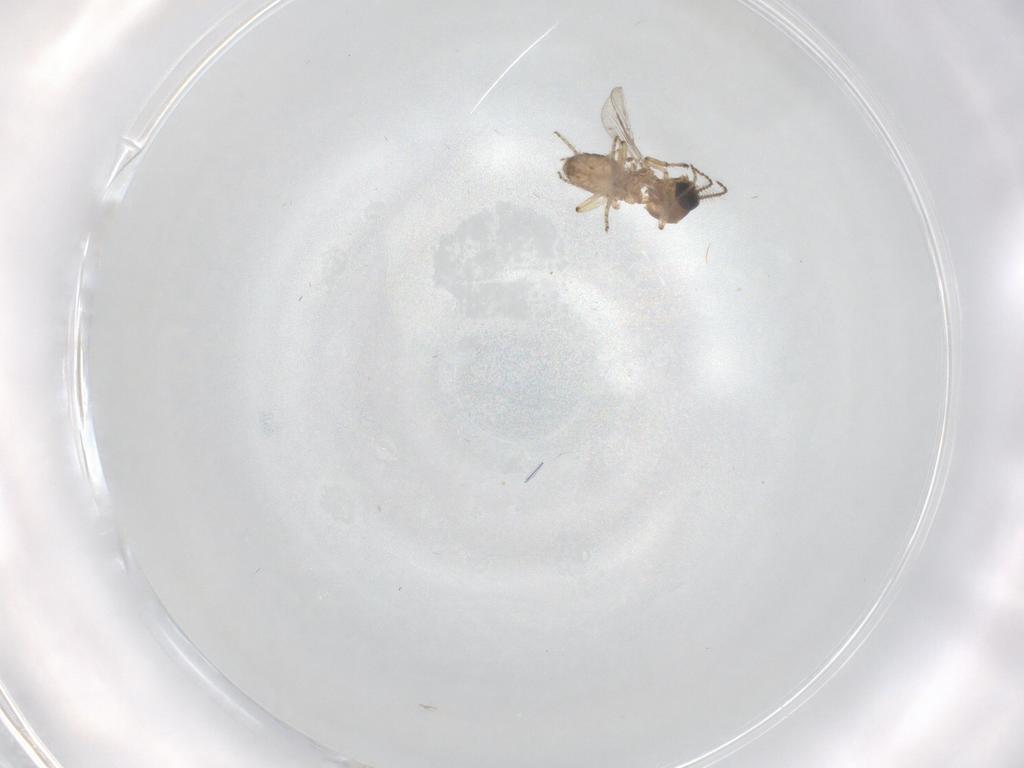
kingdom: Animalia
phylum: Arthropoda
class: Insecta
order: Diptera
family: Ceratopogonidae
